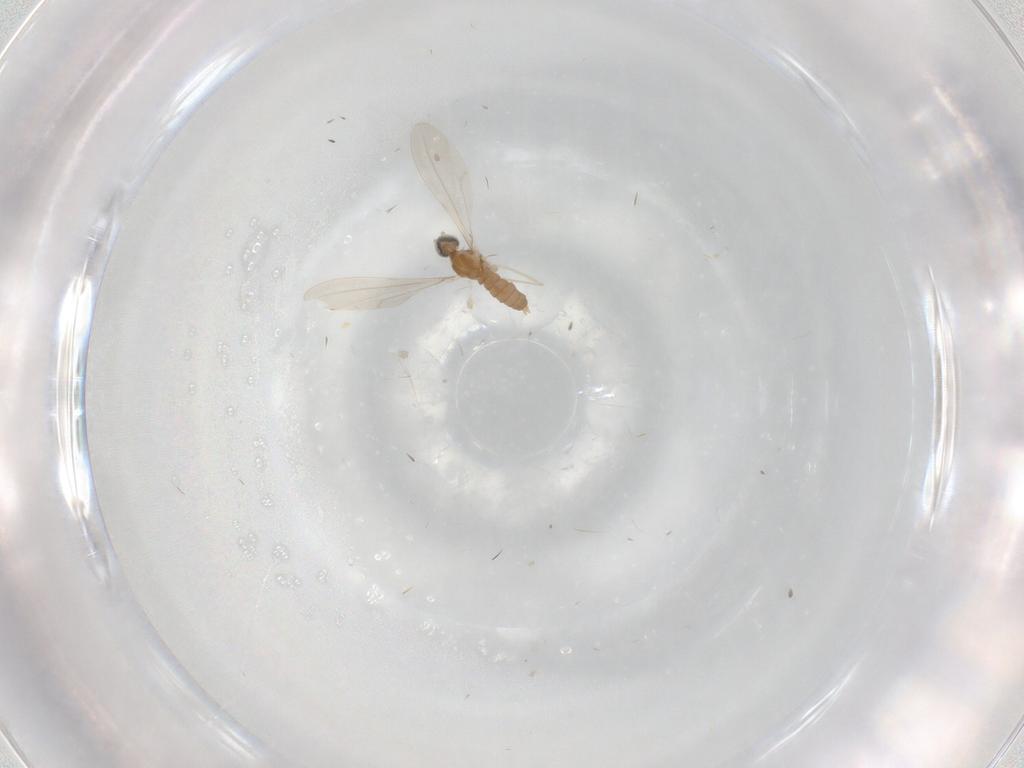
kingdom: Animalia
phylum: Arthropoda
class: Insecta
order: Diptera
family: Cecidomyiidae
